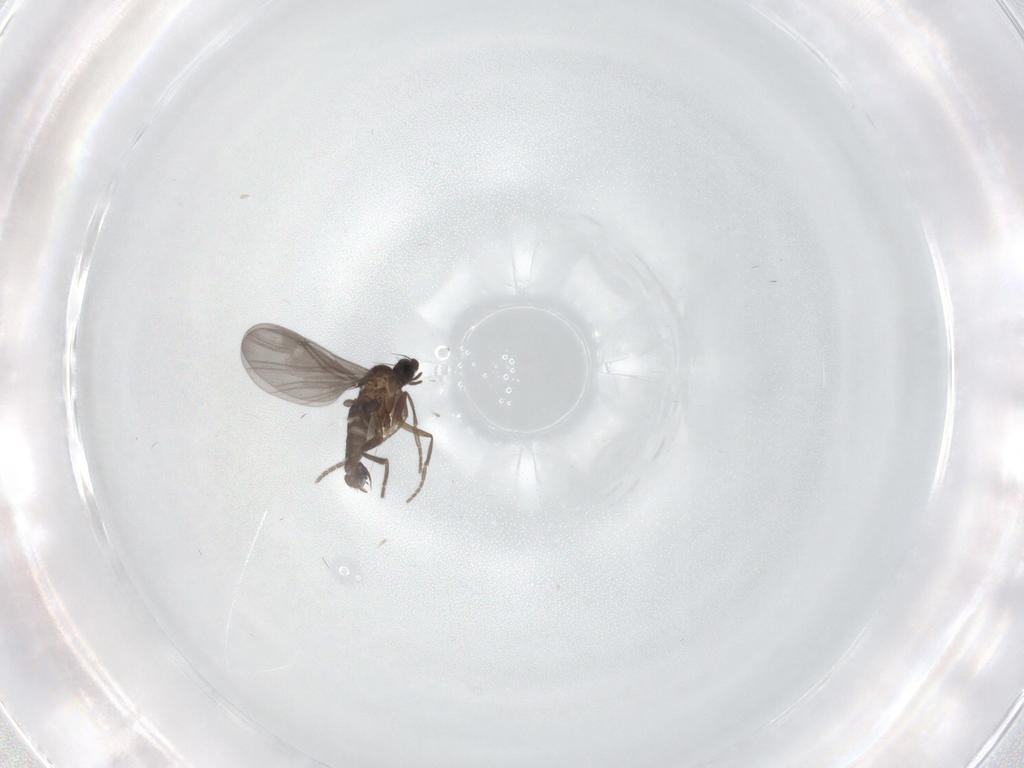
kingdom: Animalia
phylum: Arthropoda
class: Insecta
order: Diptera
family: Phoridae
